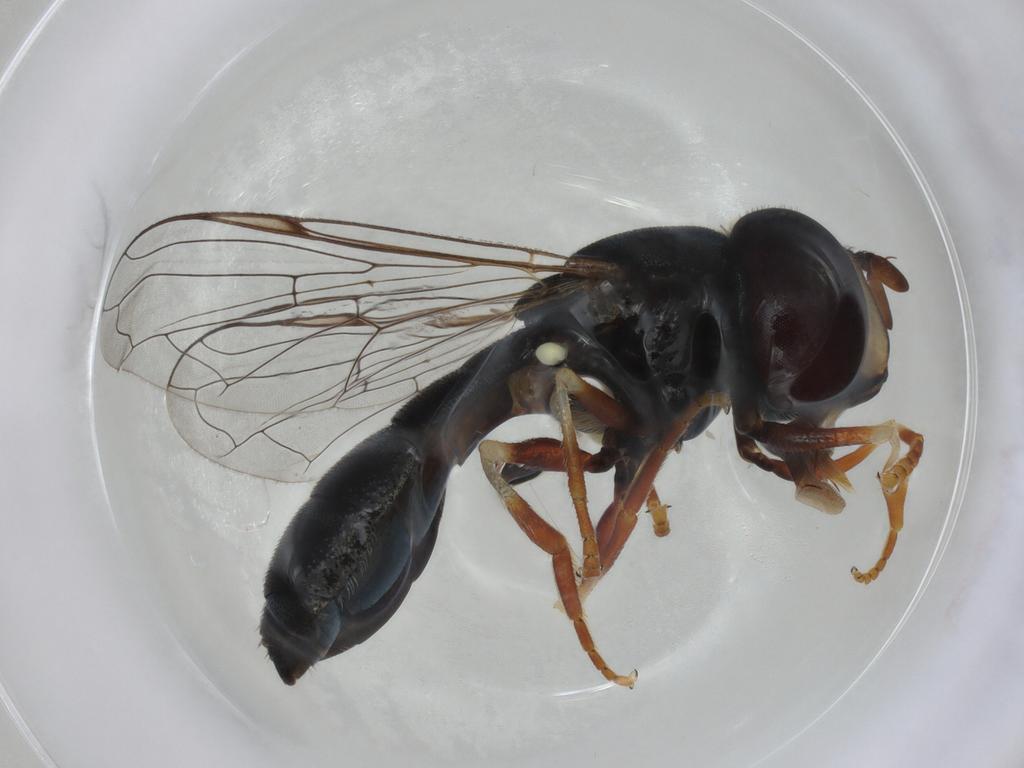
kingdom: Animalia
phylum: Arthropoda
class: Insecta
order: Diptera
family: Syrphidae
